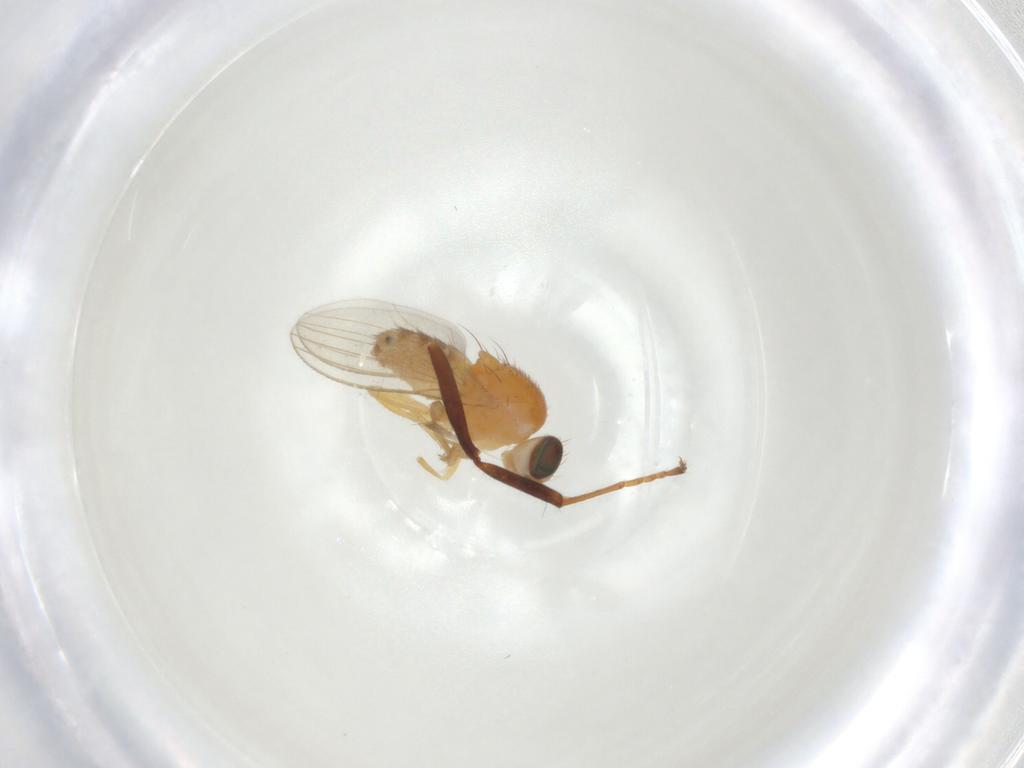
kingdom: Animalia
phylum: Arthropoda
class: Insecta
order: Diptera
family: Chyromyidae
